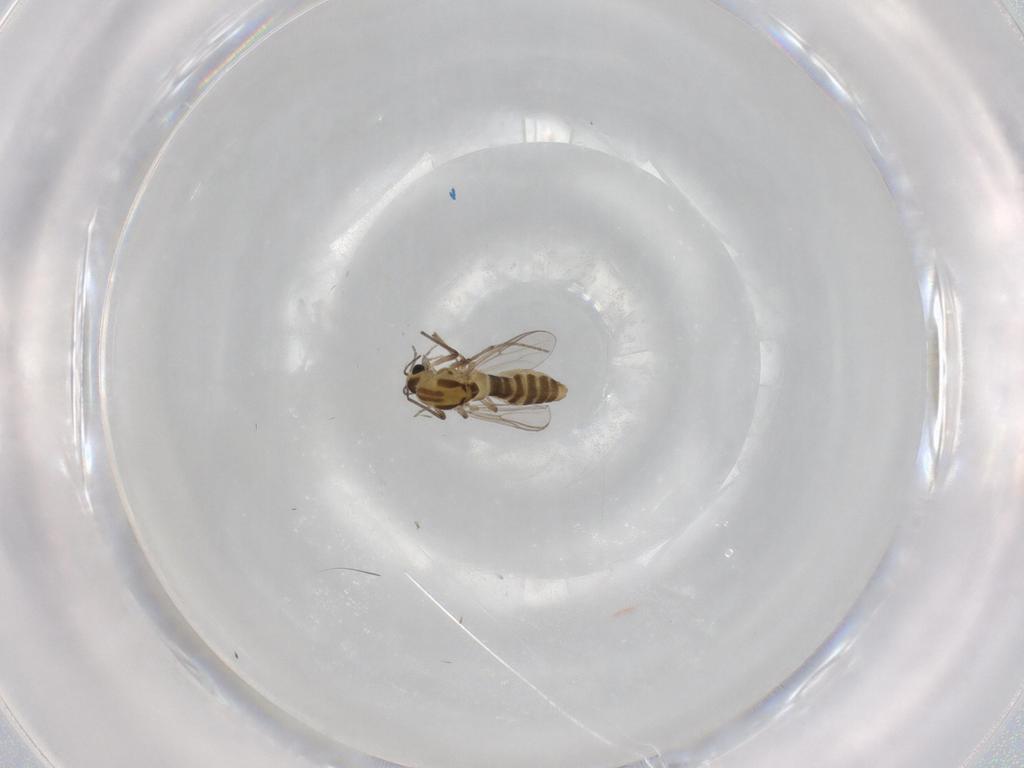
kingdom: Animalia
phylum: Arthropoda
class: Insecta
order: Diptera
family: Chironomidae
